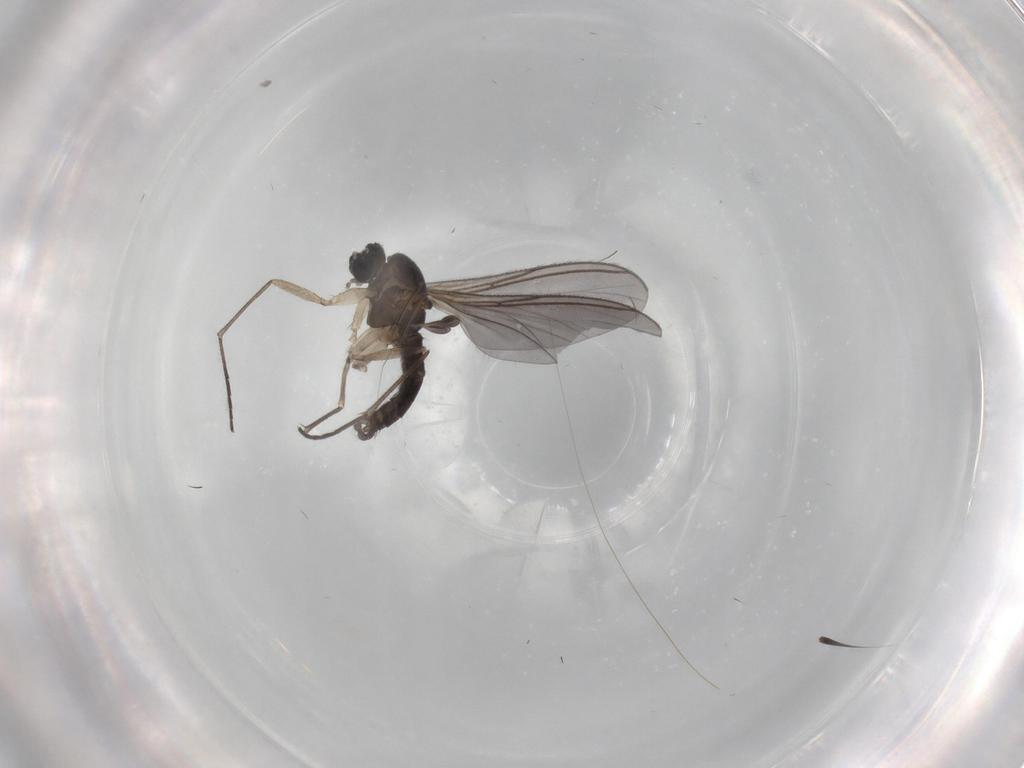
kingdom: Animalia
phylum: Arthropoda
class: Insecta
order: Diptera
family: Sciaridae
